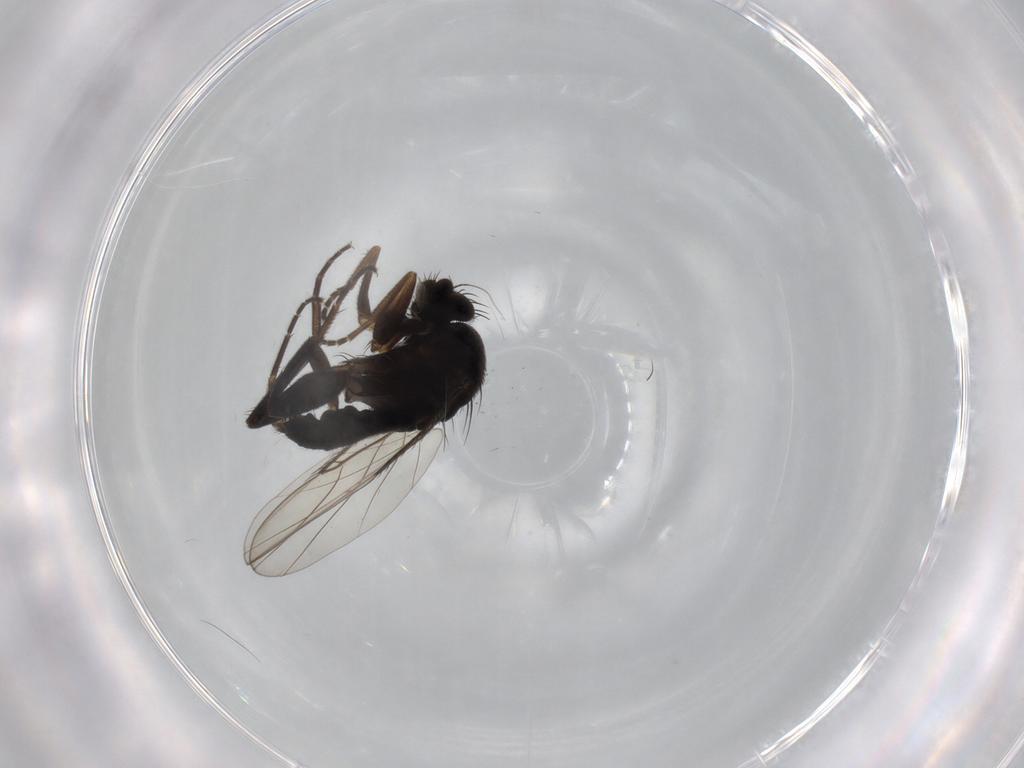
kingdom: Animalia
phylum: Arthropoda
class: Insecta
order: Diptera
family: Phoridae
